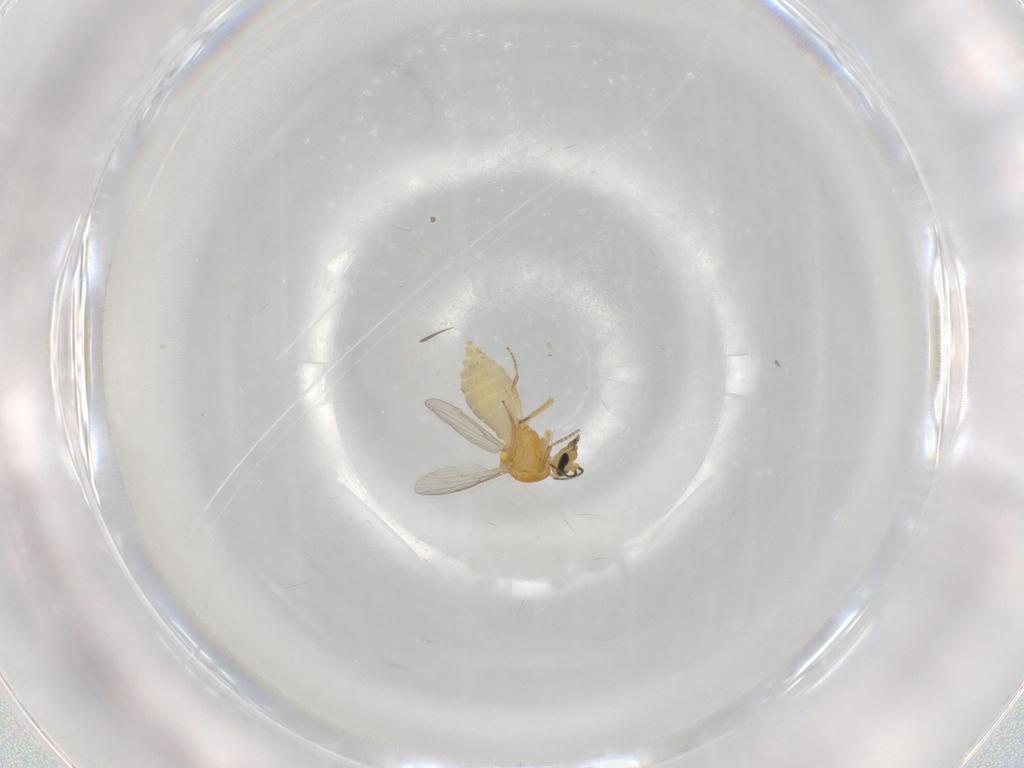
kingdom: Animalia
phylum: Arthropoda
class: Insecta
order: Diptera
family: Ceratopogonidae
